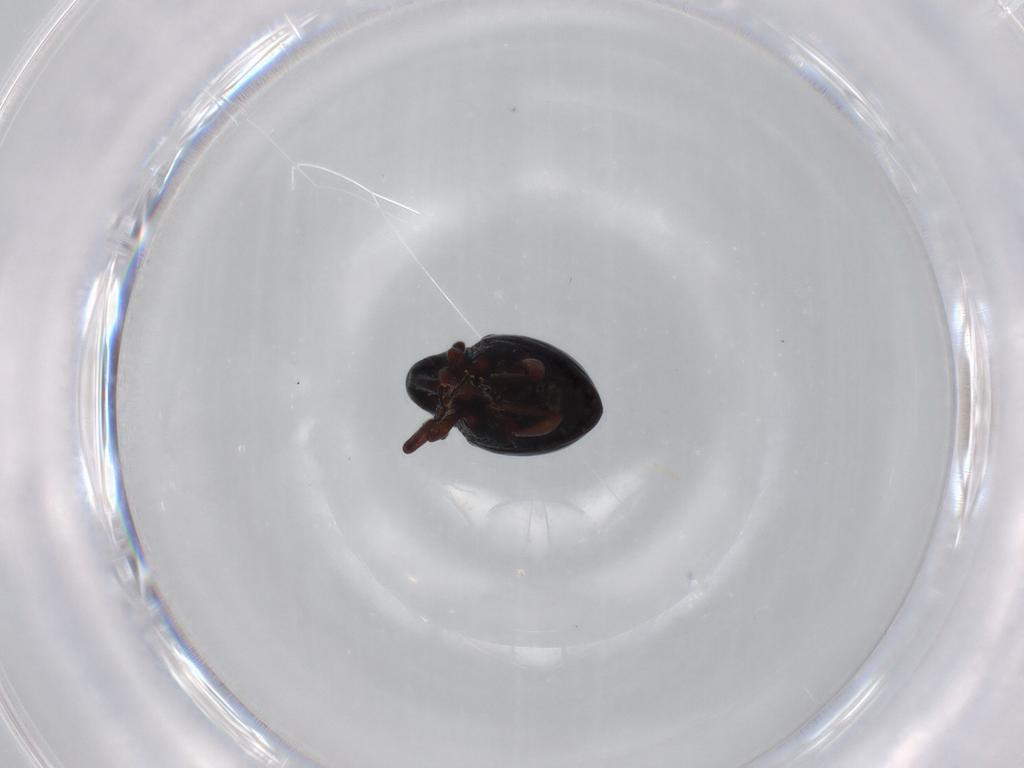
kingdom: Animalia
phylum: Arthropoda
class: Insecta
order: Coleoptera
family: Curculionidae
